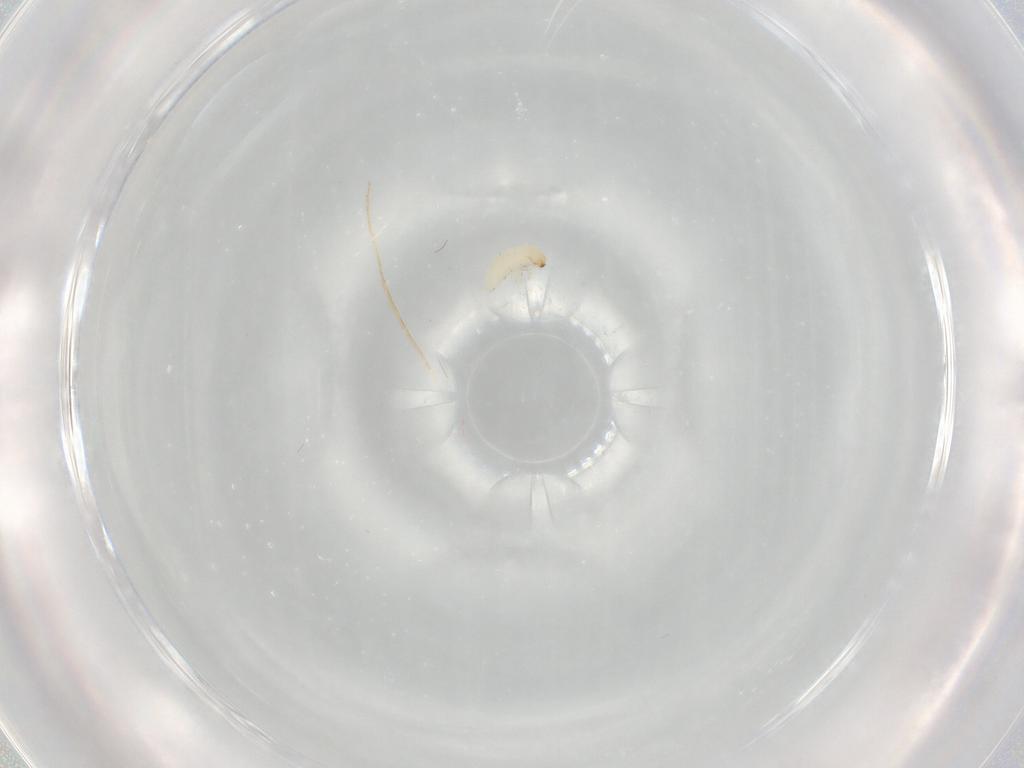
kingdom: Animalia
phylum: Arthropoda
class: Insecta
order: Coleoptera
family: Chrysomelidae
